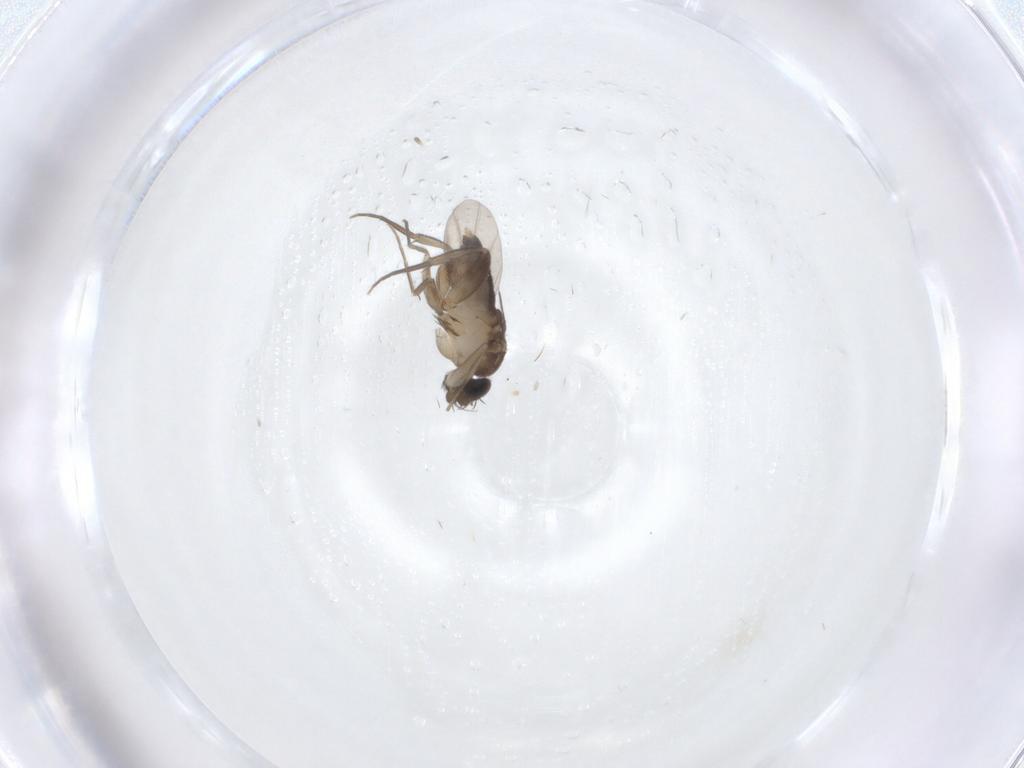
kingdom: Animalia
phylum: Arthropoda
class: Insecta
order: Diptera
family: Phoridae
